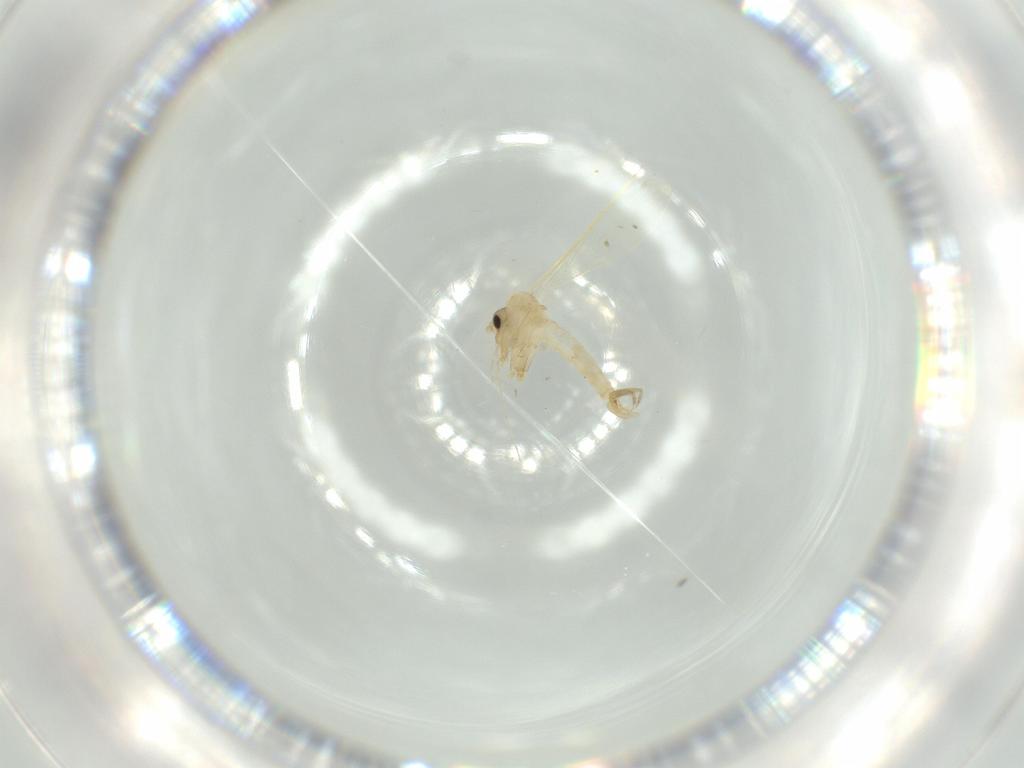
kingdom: Animalia
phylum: Arthropoda
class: Insecta
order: Diptera
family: Psychodidae
